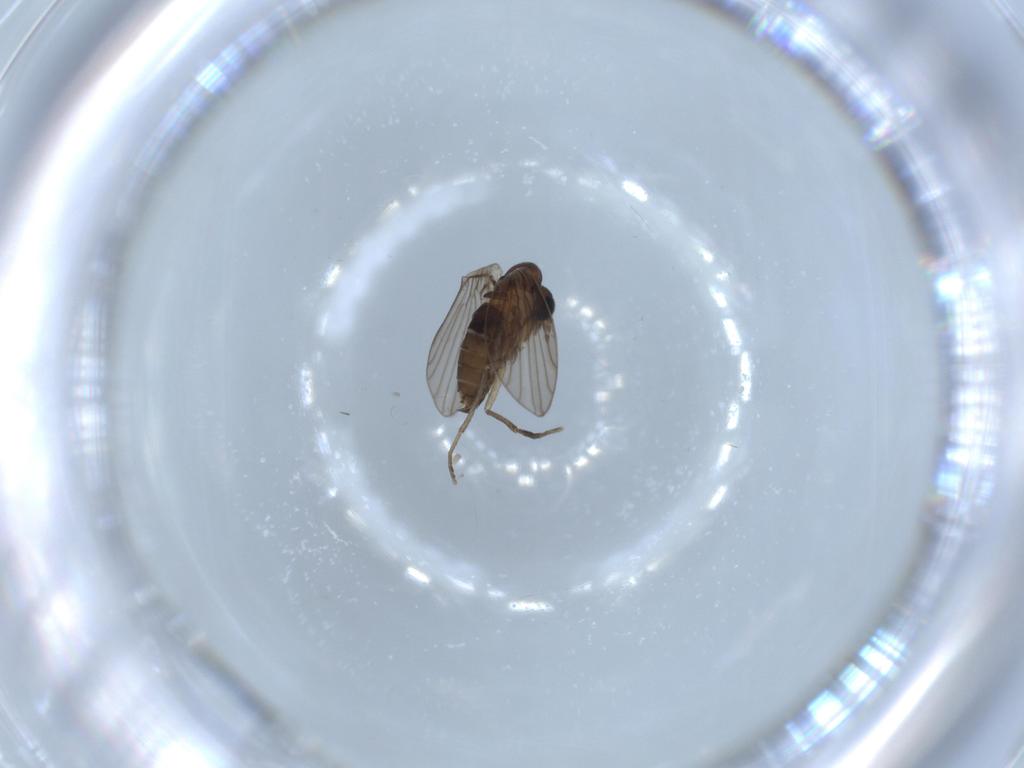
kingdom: Animalia
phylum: Arthropoda
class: Insecta
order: Diptera
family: Psychodidae
